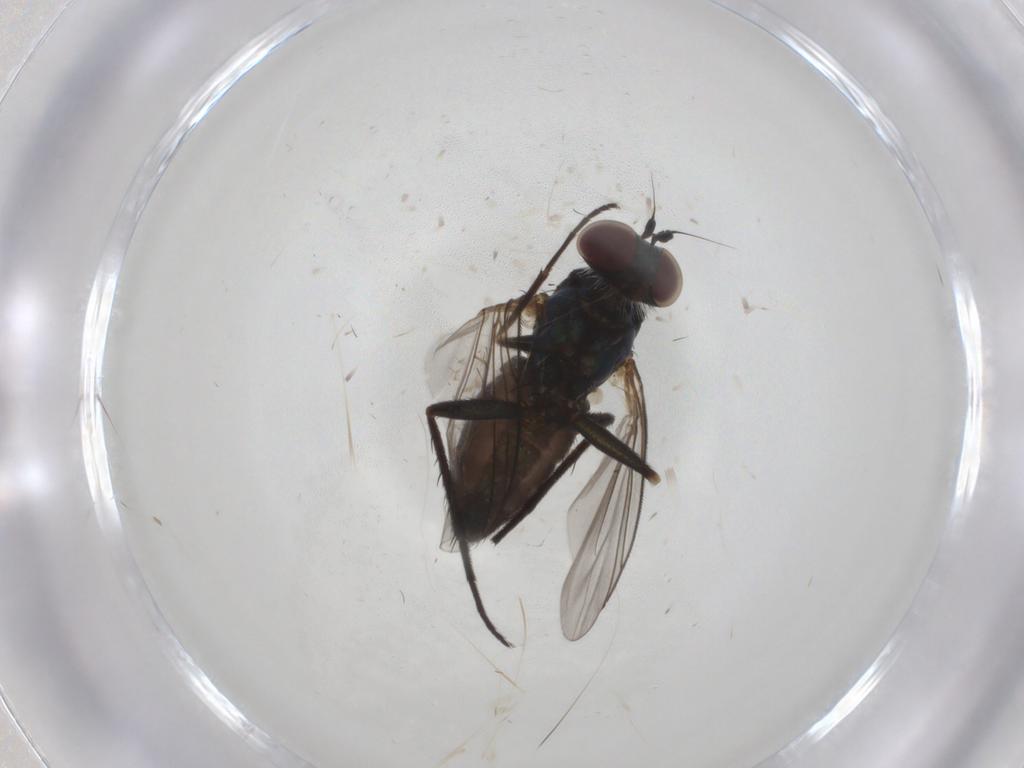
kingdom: Animalia
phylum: Arthropoda
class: Insecta
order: Diptera
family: Dolichopodidae
